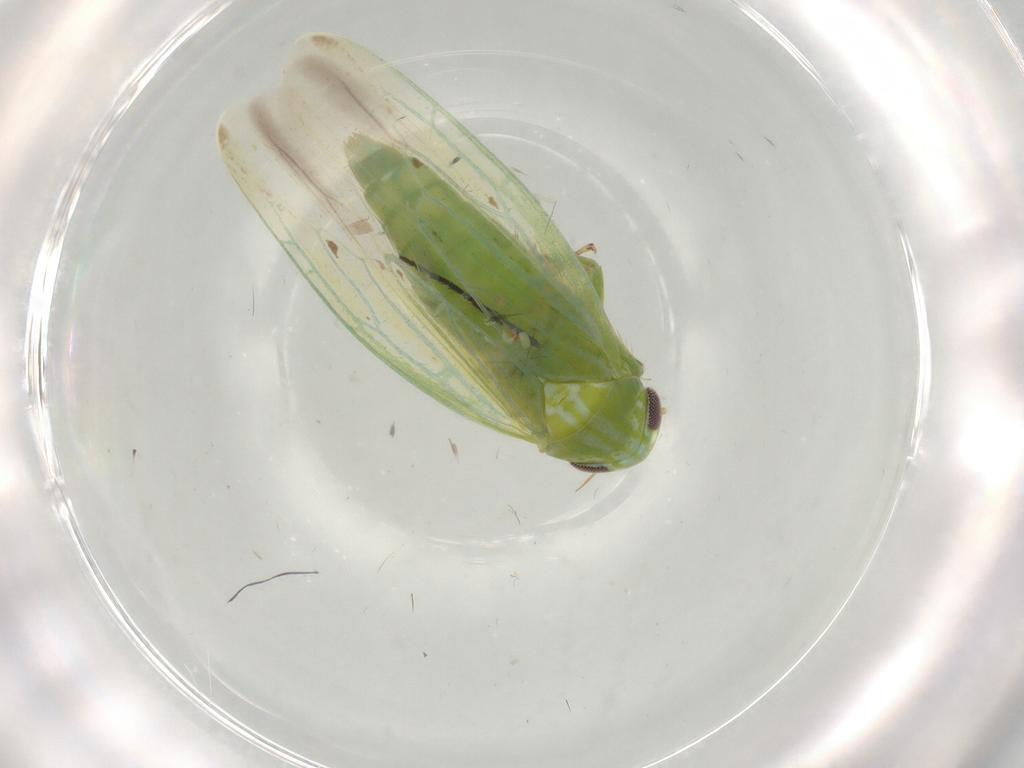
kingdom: Animalia
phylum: Arthropoda
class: Insecta
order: Hemiptera
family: Cicadellidae
